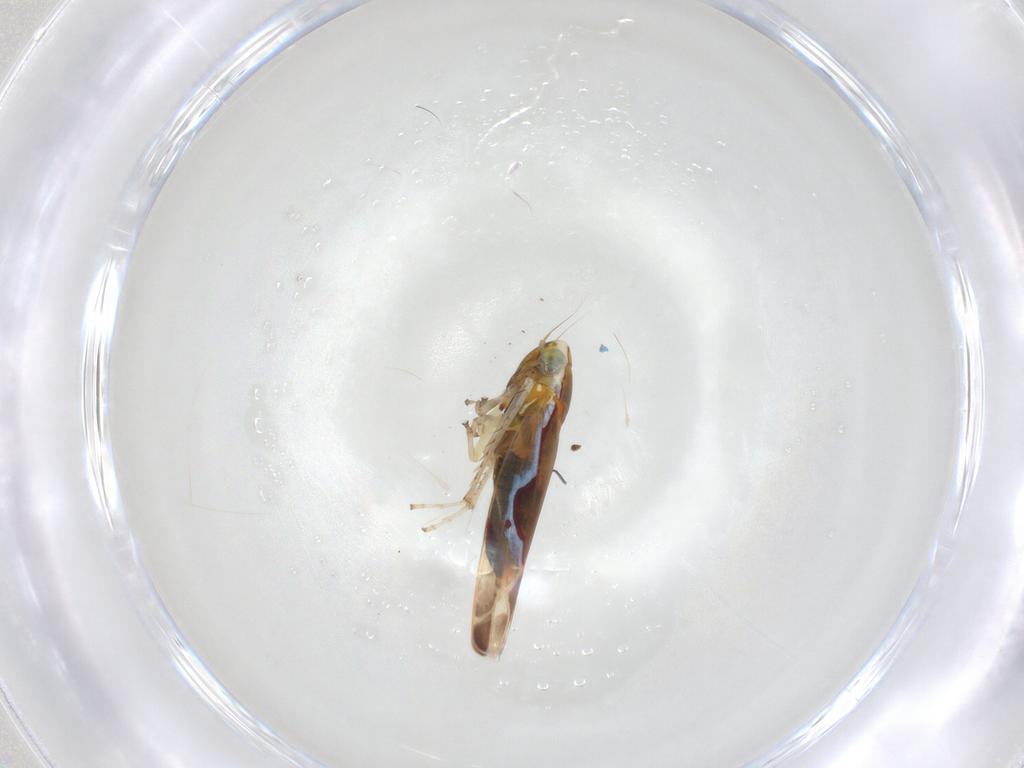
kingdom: Animalia
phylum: Arthropoda
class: Insecta
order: Hemiptera
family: Cicadellidae
